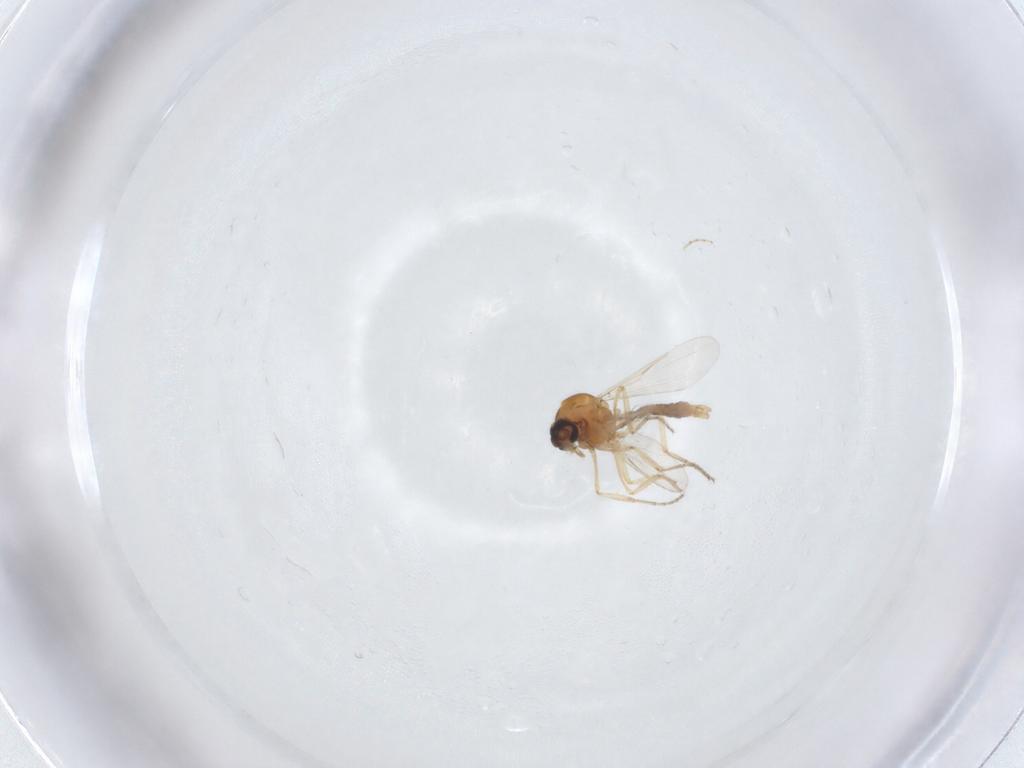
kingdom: Animalia
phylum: Arthropoda
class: Insecta
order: Diptera
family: Ceratopogonidae
